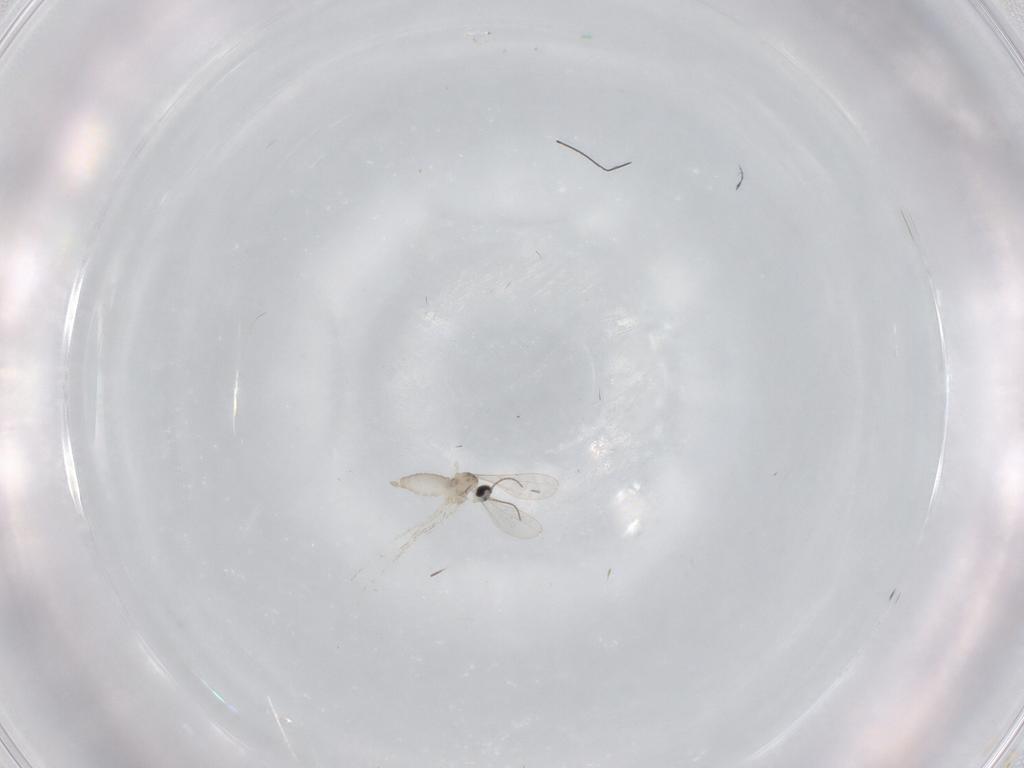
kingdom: Animalia
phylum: Arthropoda
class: Insecta
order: Diptera
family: Cecidomyiidae
